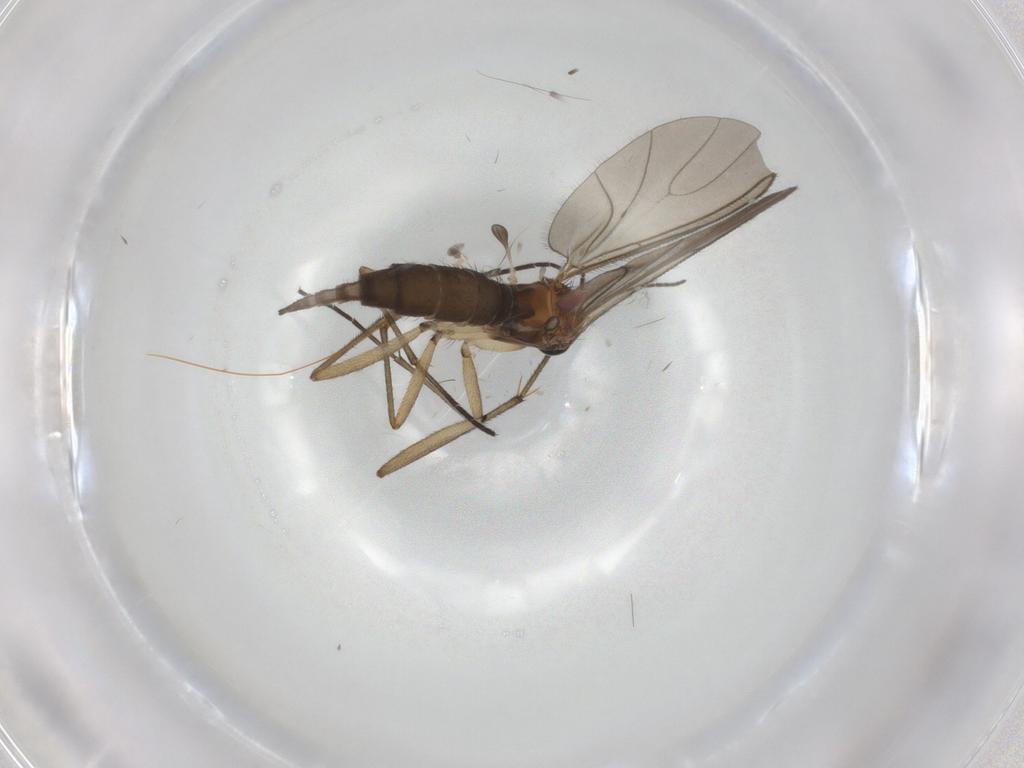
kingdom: Animalia
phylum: Arthropoda
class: Insecta
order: Diptera
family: Sciaridae
